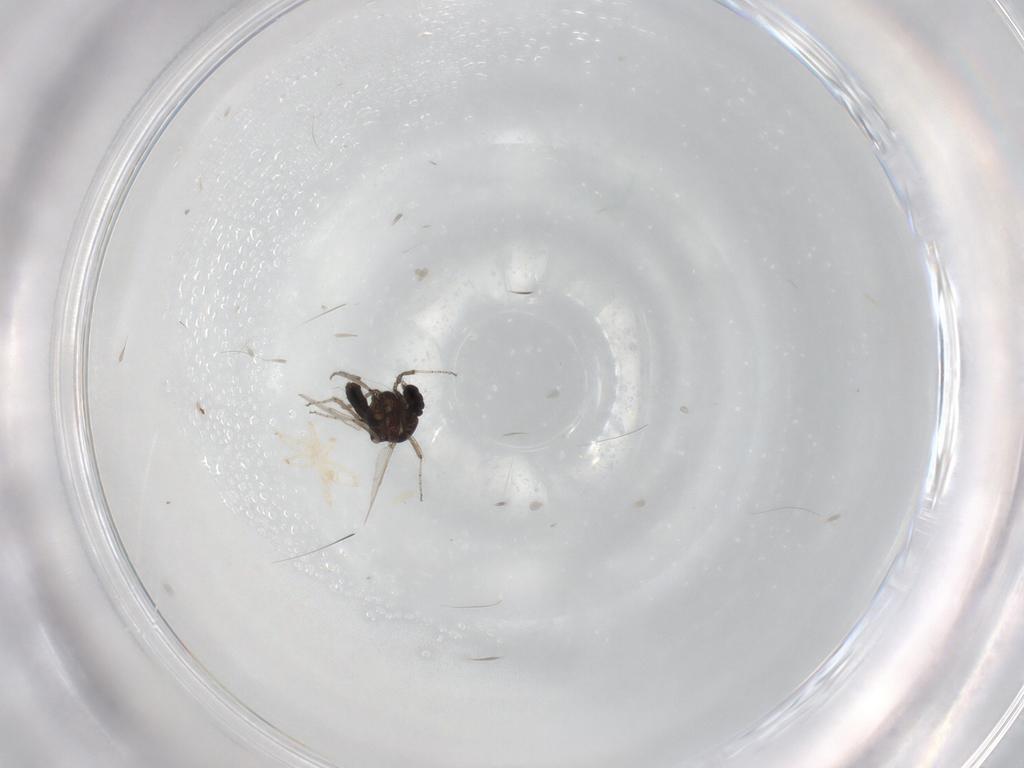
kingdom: Animalia
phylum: Arthropoda
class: Insecta
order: Diptera
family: Ceratopogonidae
